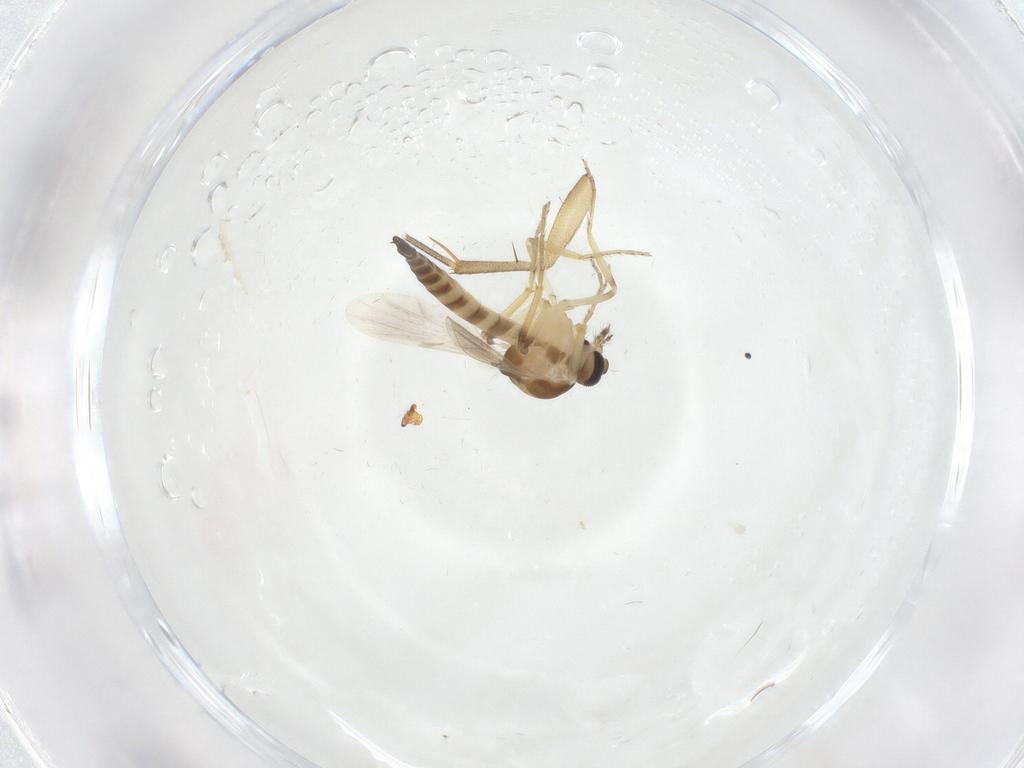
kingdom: Animalia
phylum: Arthropoda
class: Insecta
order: Diptera
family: Mycetophilidae
